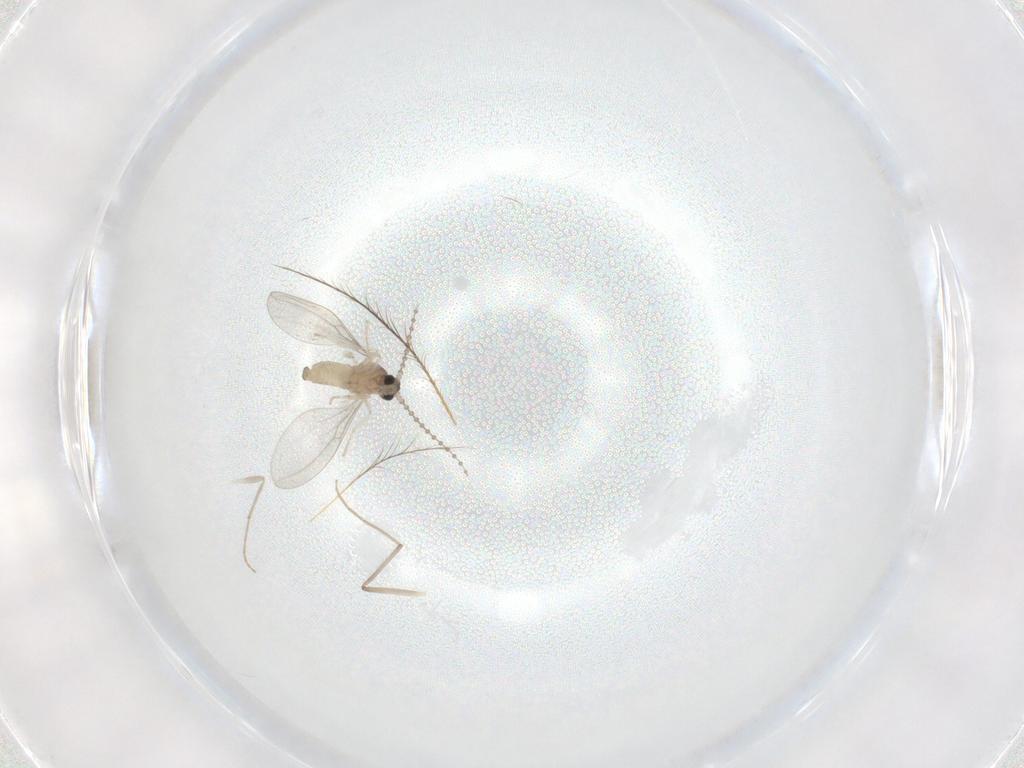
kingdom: Animalia
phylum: Arthropoda
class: Insecta
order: Diptera
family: Cecidomyiidae
